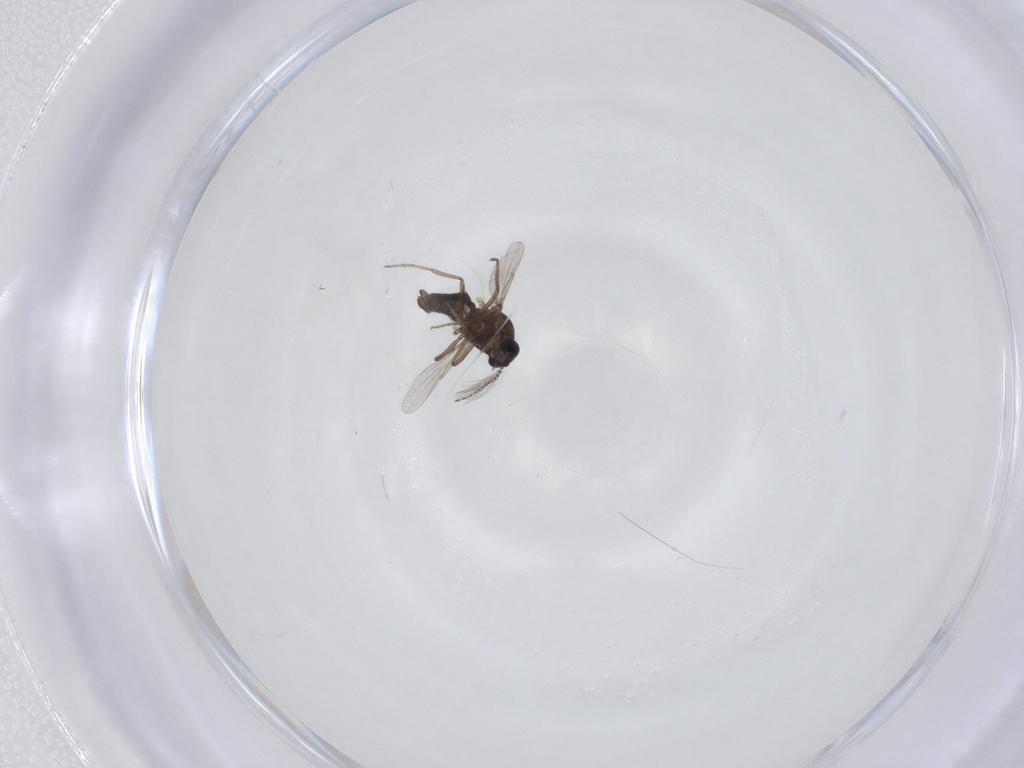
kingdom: Animalia
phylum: Arthropoda
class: Insecta
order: Diptera
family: Ceratopogonidae
